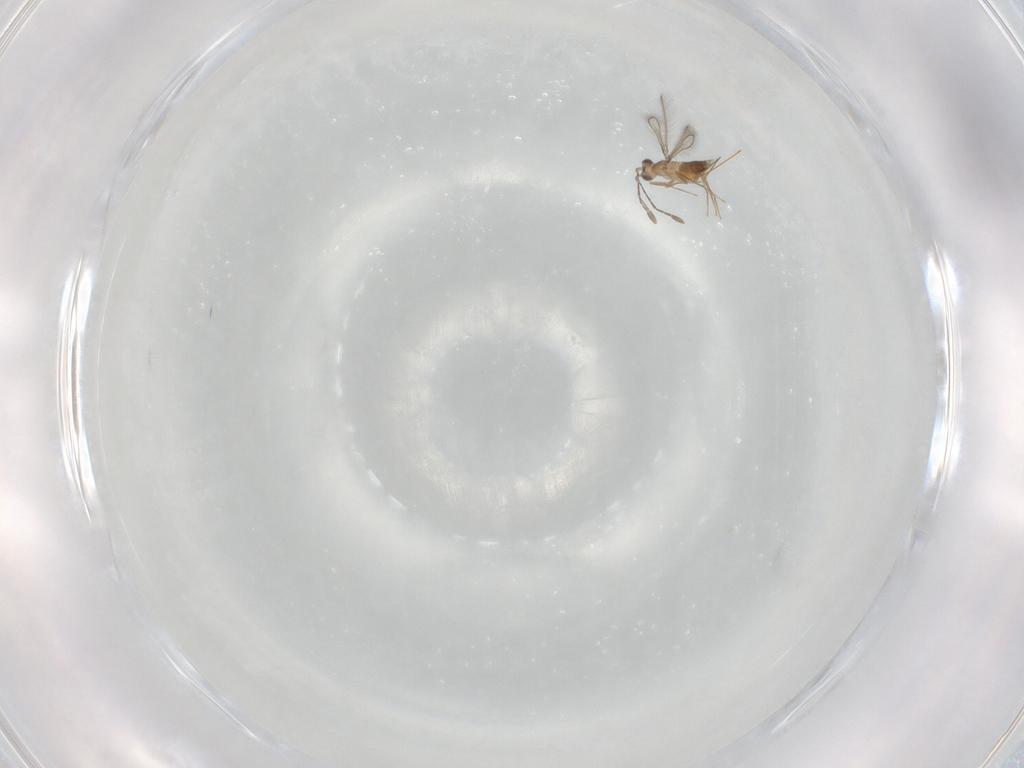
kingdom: Animalia
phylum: Arthropoda
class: Insecta
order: Hymenoptera
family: Mymaridae
